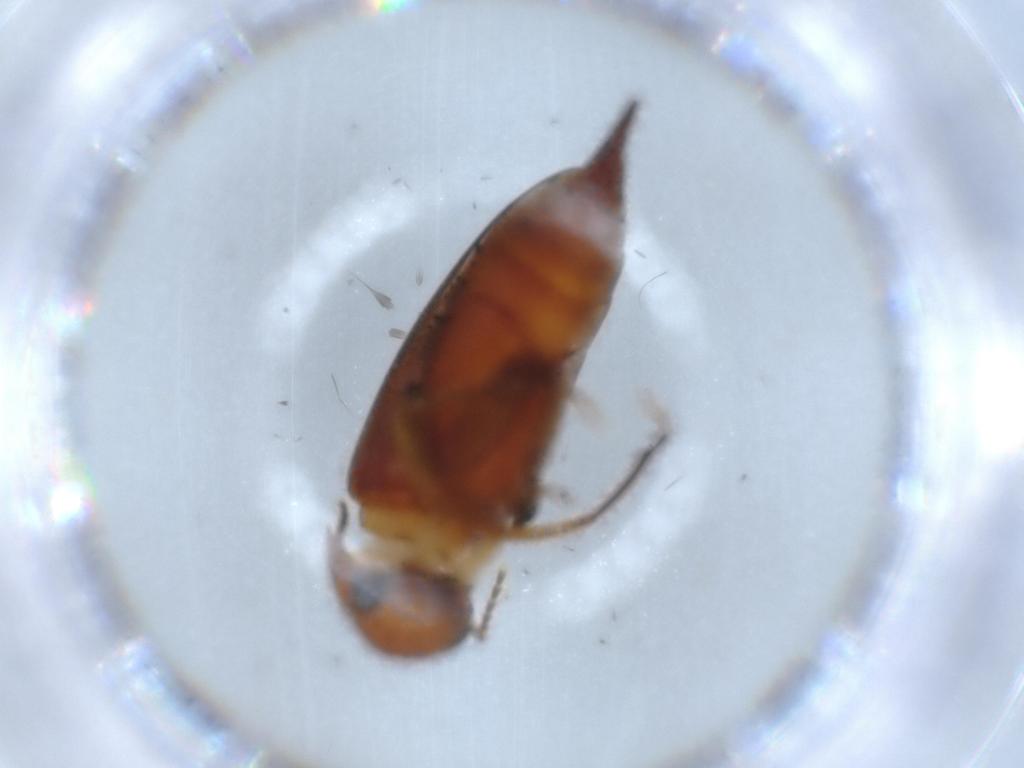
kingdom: Animalia
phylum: Arthropoda
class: Insecta
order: Coleoptera
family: Mordellidae
